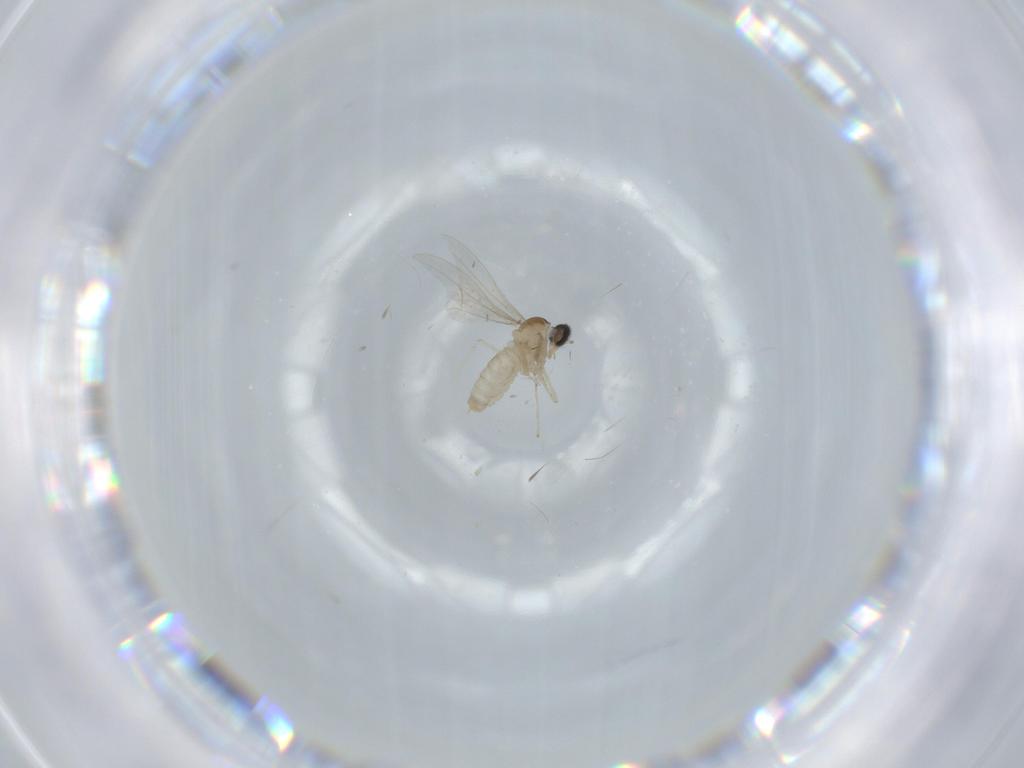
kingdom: Animalia
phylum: Arthropoda
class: Insecta
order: Diptera
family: Cecidomyiidae
